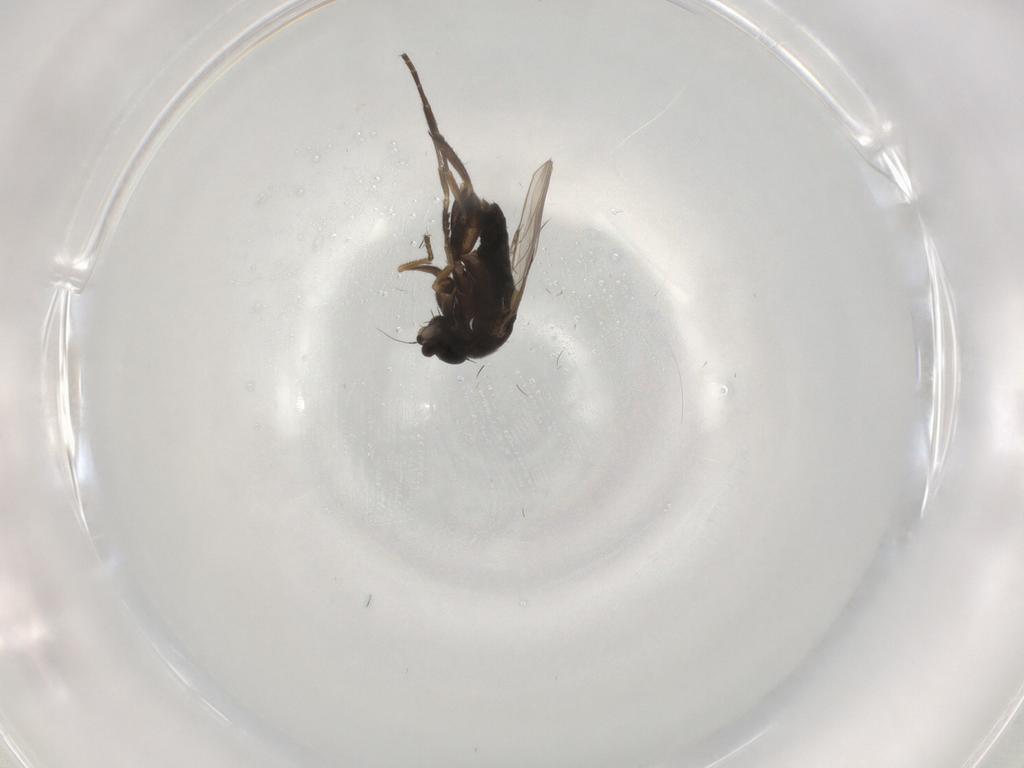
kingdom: Animalia
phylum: Arthropoda
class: Insecta
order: Diptera
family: Phoridae
